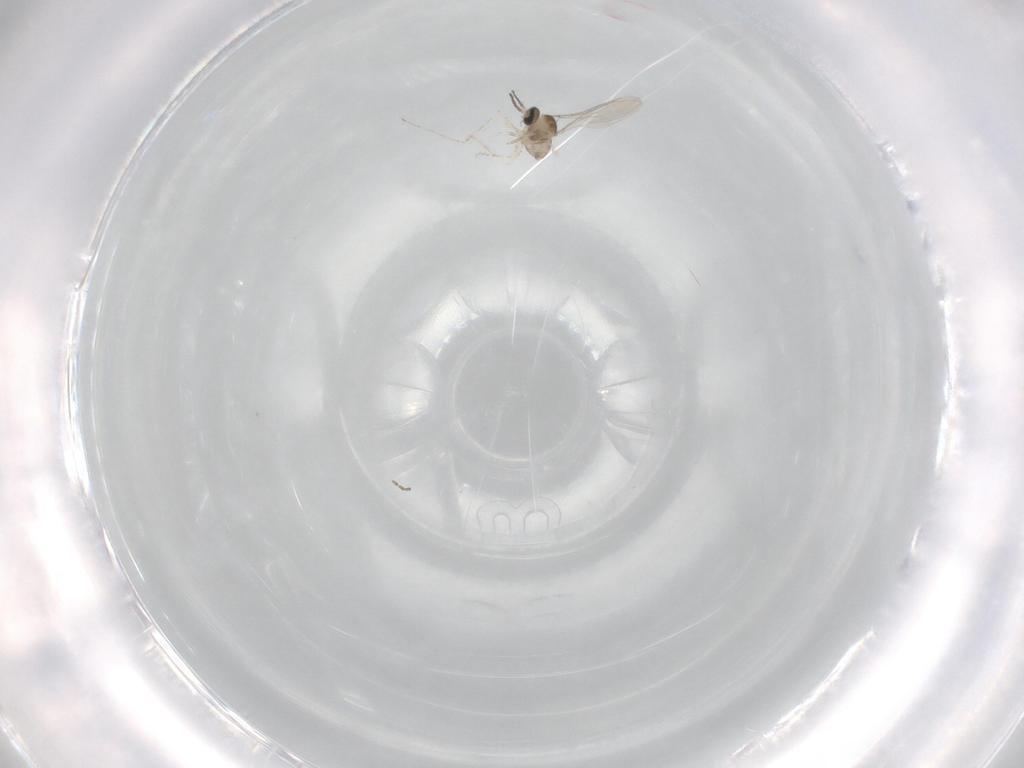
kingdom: Animalia
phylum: Arthropoda
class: Insecta
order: Diptera
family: Cecidomyiidae
